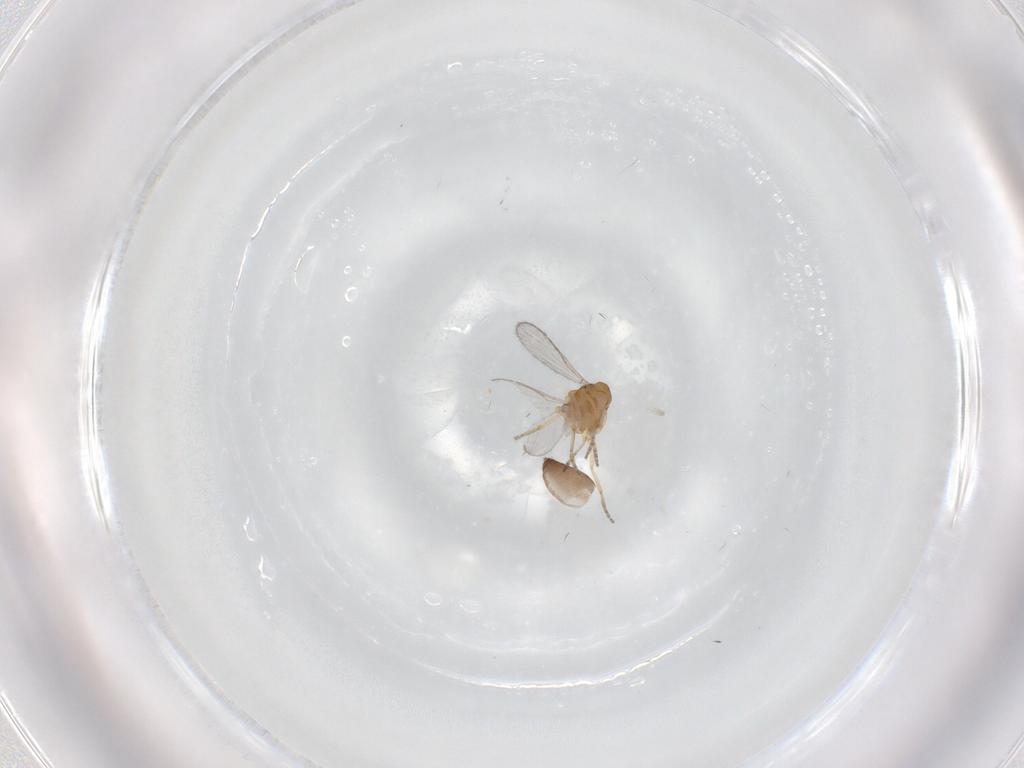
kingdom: Animalia
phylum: Arthropoda
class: Insecta
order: Diptera
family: Ceratopogonidae
